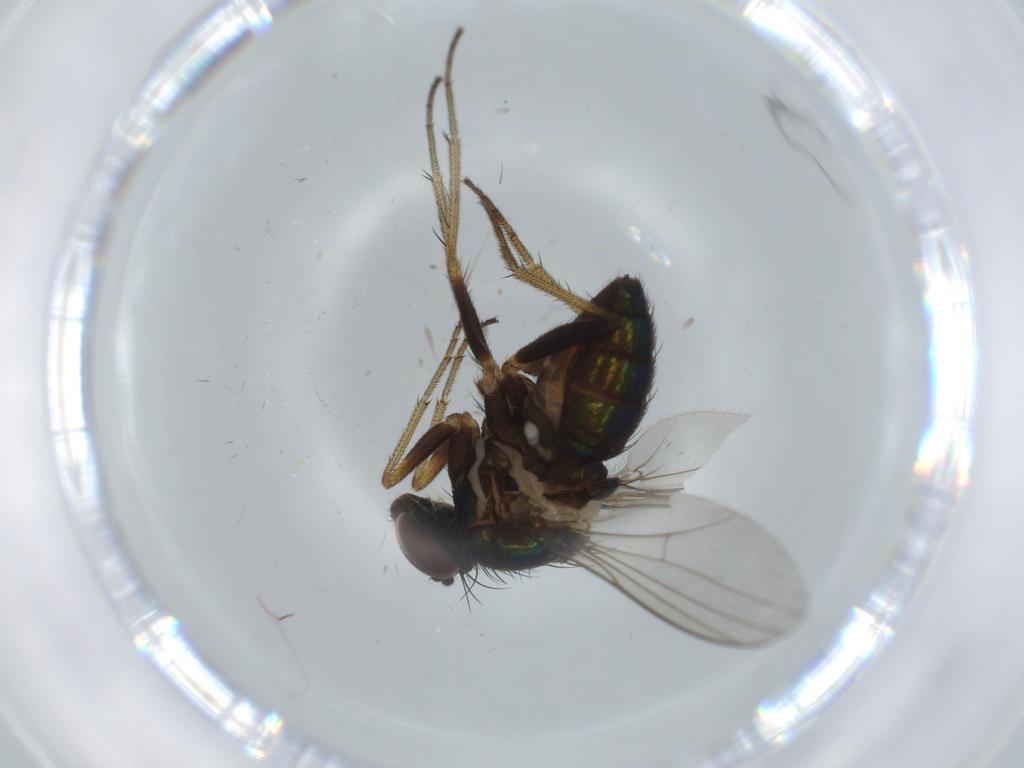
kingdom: Animalia
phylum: Arthropoda
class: Insecta
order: Diptera
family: Dolichopodidae
